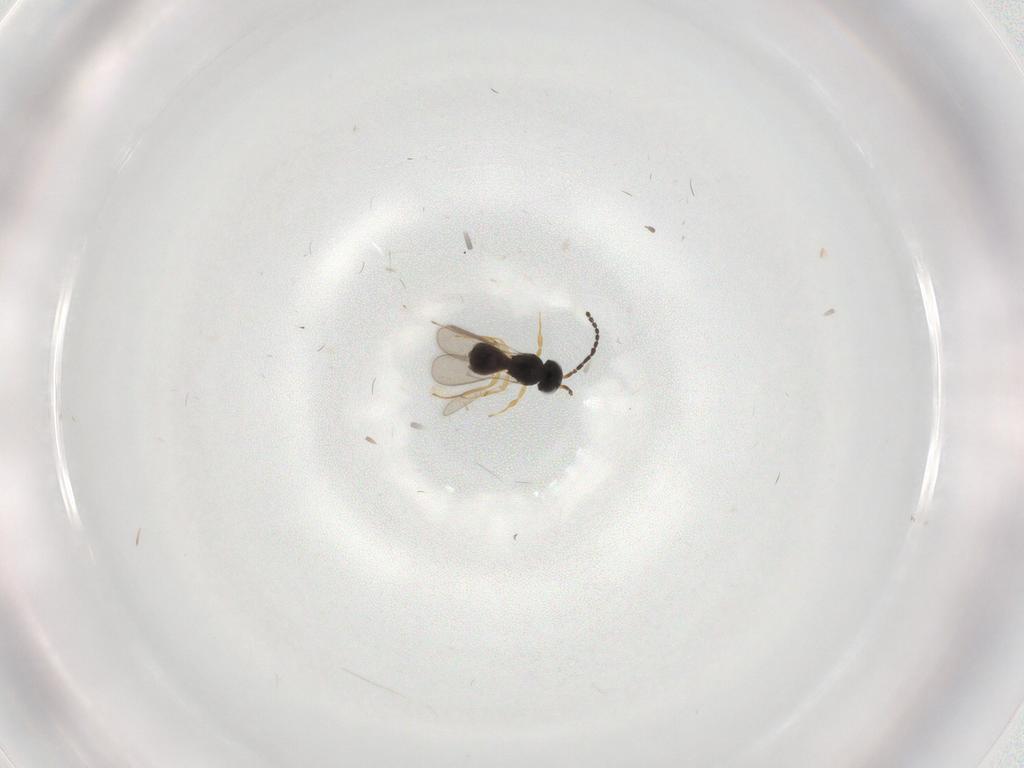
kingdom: Animalia
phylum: Arthropoda
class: Insecta
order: Hymenoptera
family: Scelionidae
